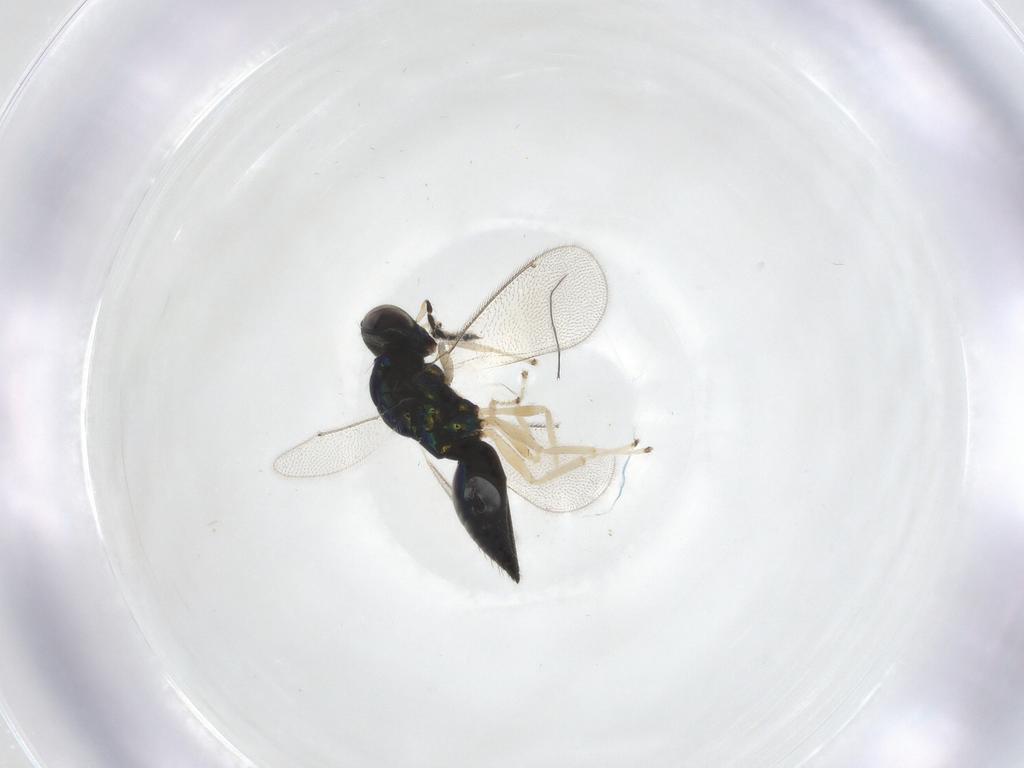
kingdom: Animalia
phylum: Arthropoda
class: Insecta
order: Hymenoptera
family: Eulophidae
